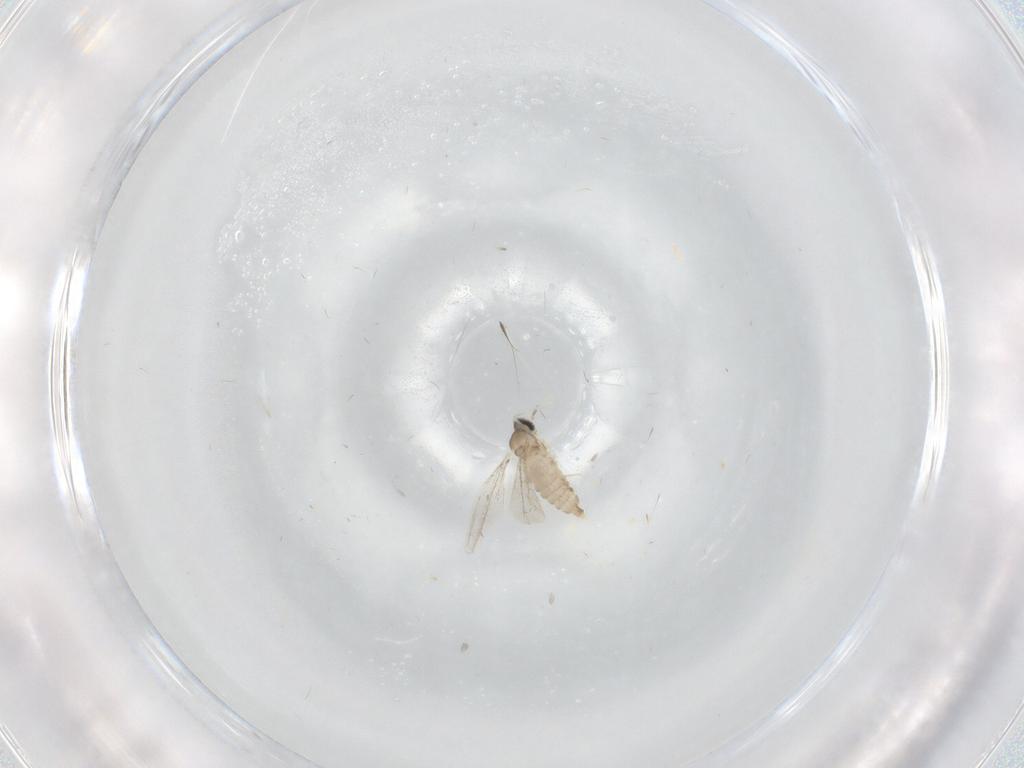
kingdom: Animalia
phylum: Arthropoda
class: Insecta
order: Diptera
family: Cecidomyiidae
